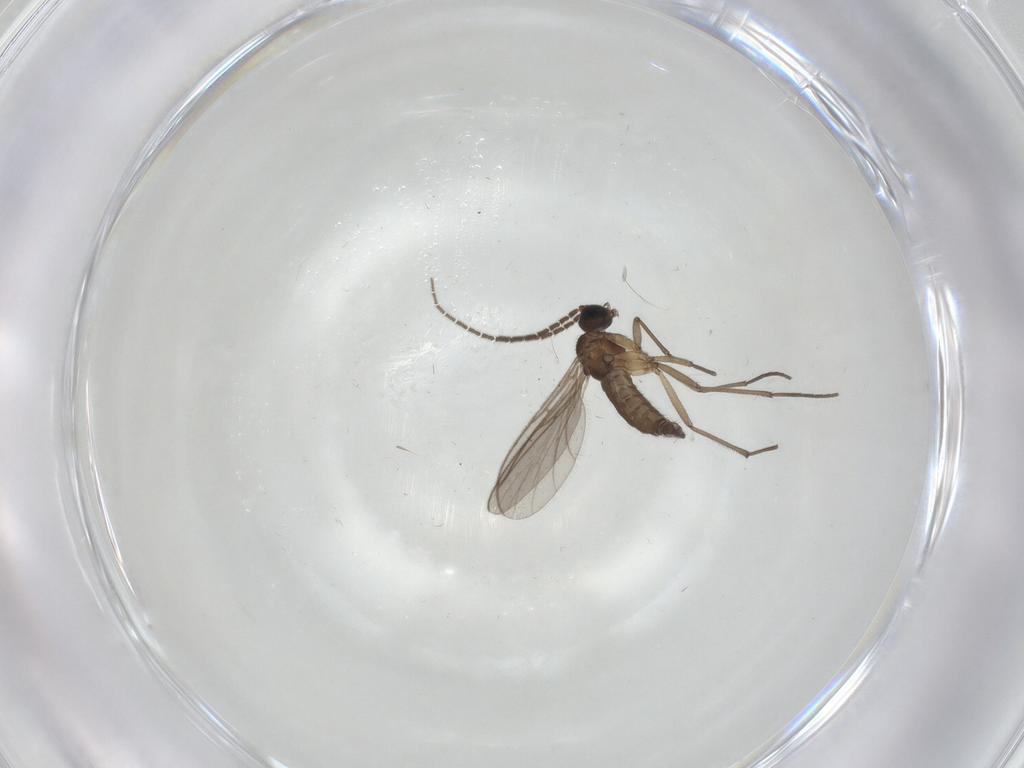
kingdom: Animalia
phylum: Arthropoda
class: Insecta
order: Diptera
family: Sciaridae
